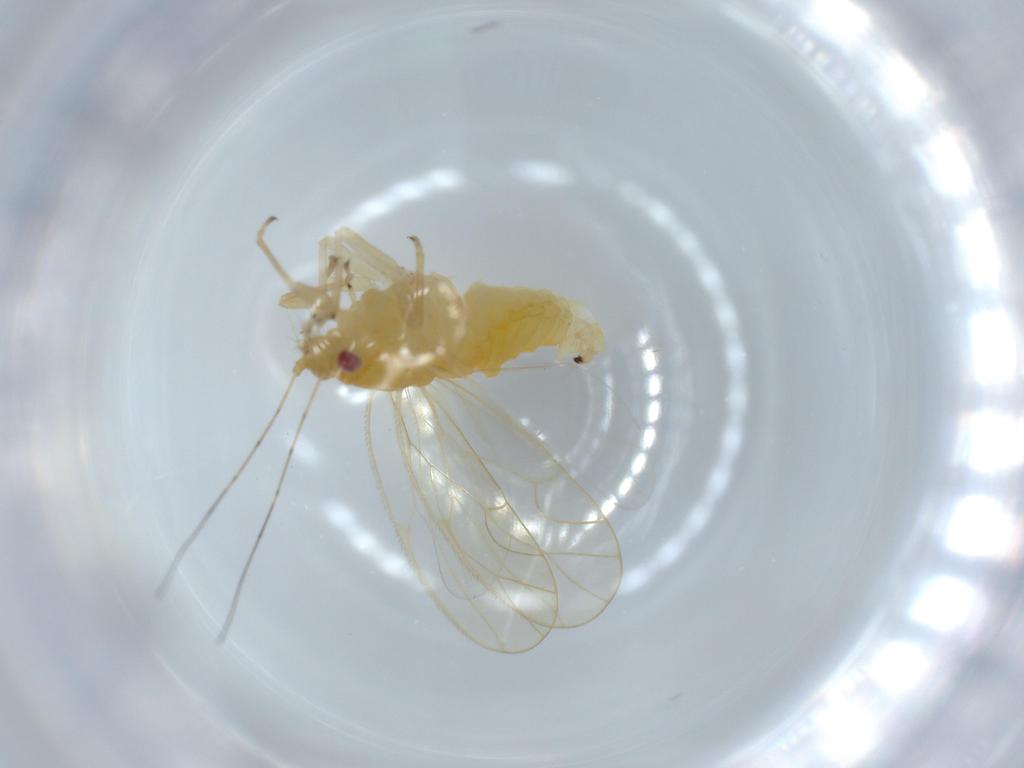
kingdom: Animalia
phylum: Arthropoda
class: Insecta
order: Hemiptera
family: Psyllidae
